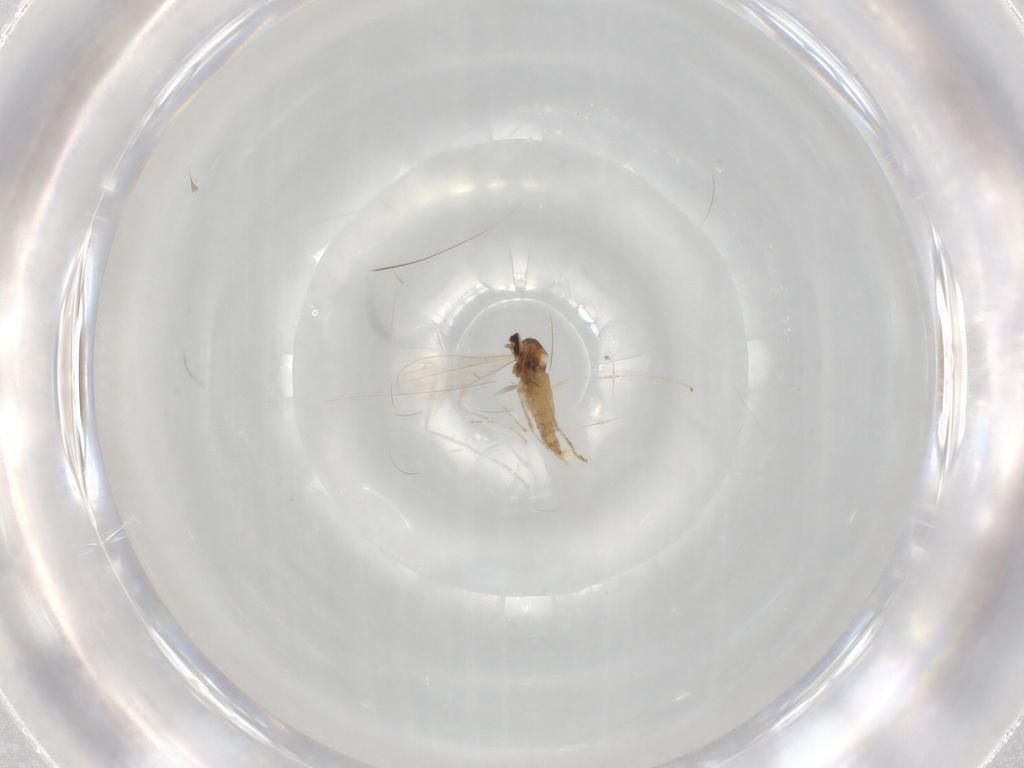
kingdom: Animalia
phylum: Arthropoda
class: Insecta
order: Diptera
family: Cecidomyiidae
